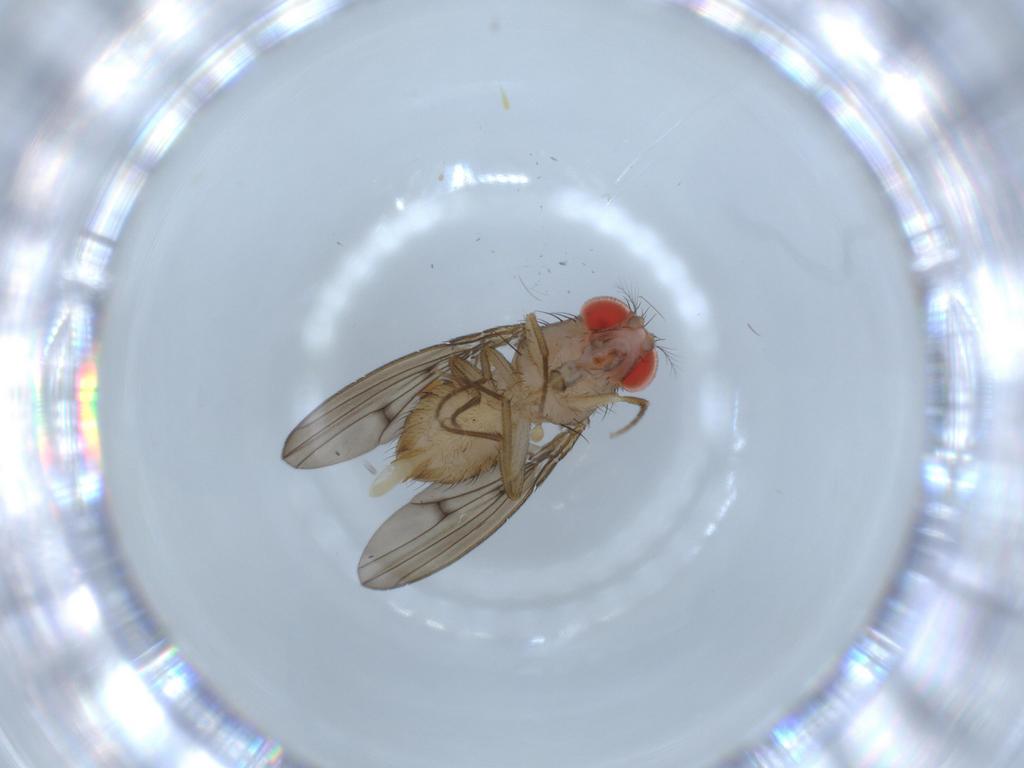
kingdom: Animalia
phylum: Arthropoda
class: Insecta
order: Diptera
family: Drosophilidae
